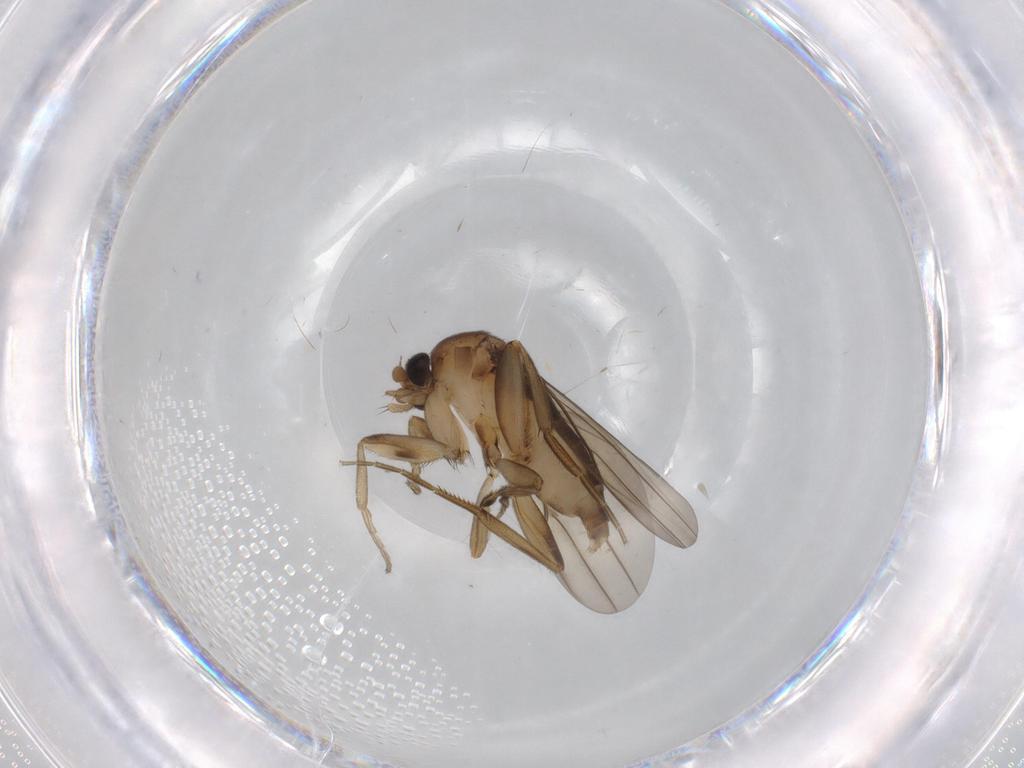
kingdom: Animalia
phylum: Arthropoda
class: Insecta
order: Diptera
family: Phoridae
